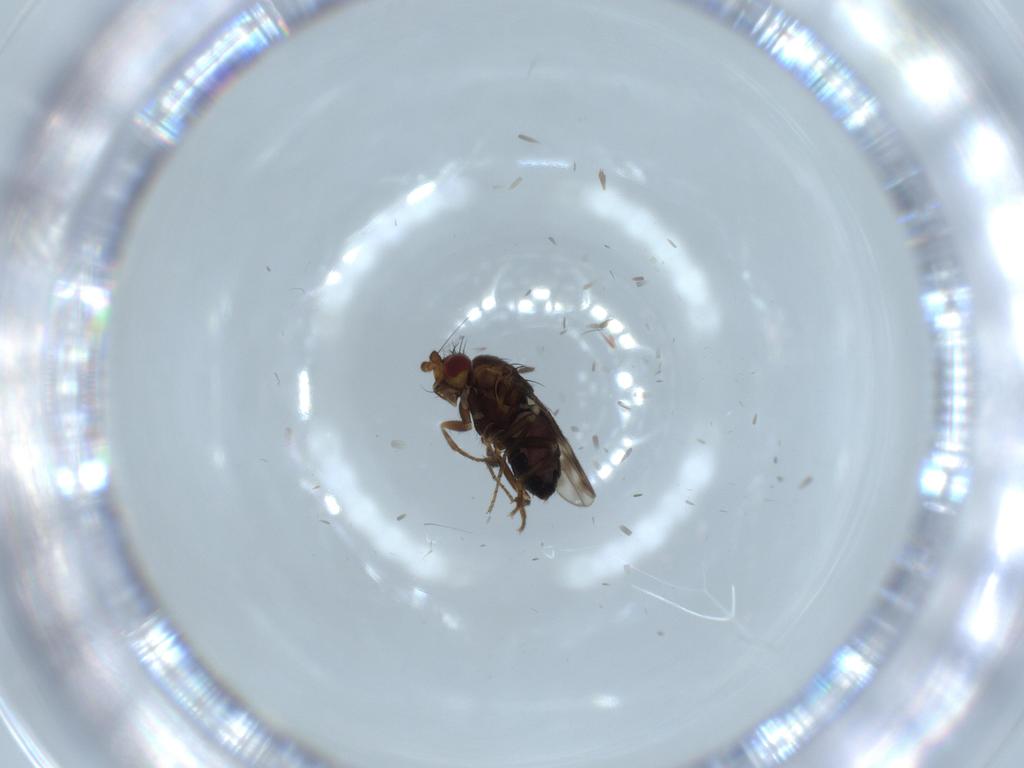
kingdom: Animalia
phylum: Arthropoda
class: Insecta
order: Diptera
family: Sphaeroceridae
